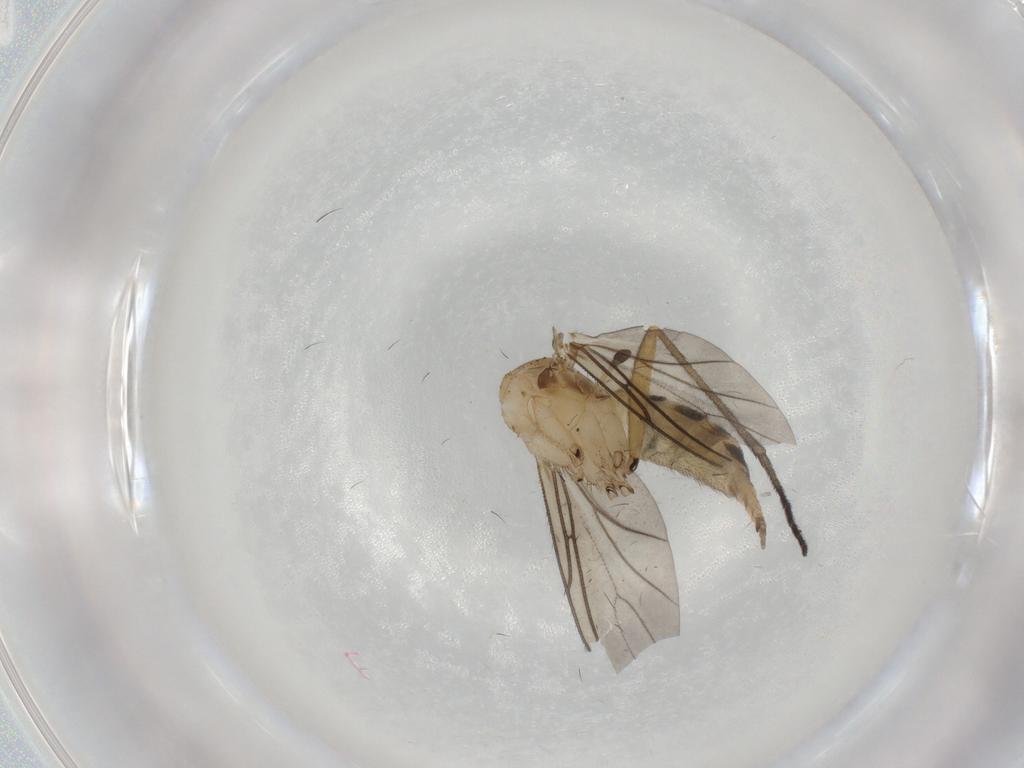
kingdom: Animalia
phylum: Arthropoda
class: Insecta
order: Diptera
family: Sciaridae
